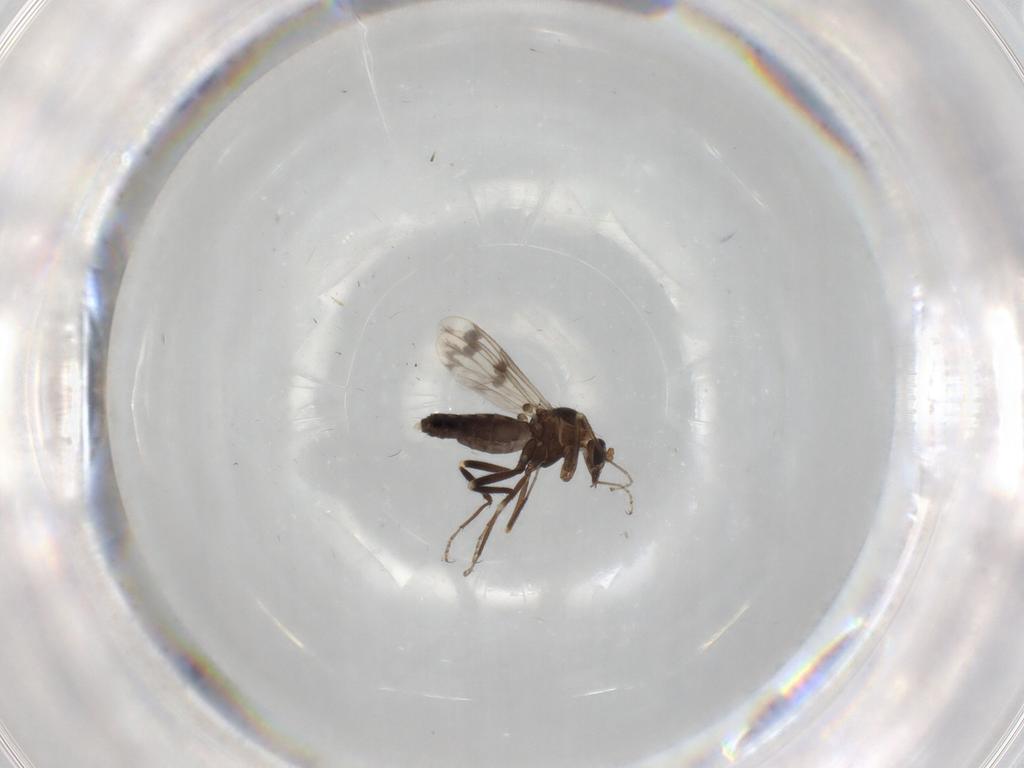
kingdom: Animalia
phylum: Arthropoda
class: Insecta
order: Diptera
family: Ceratopogonidae
